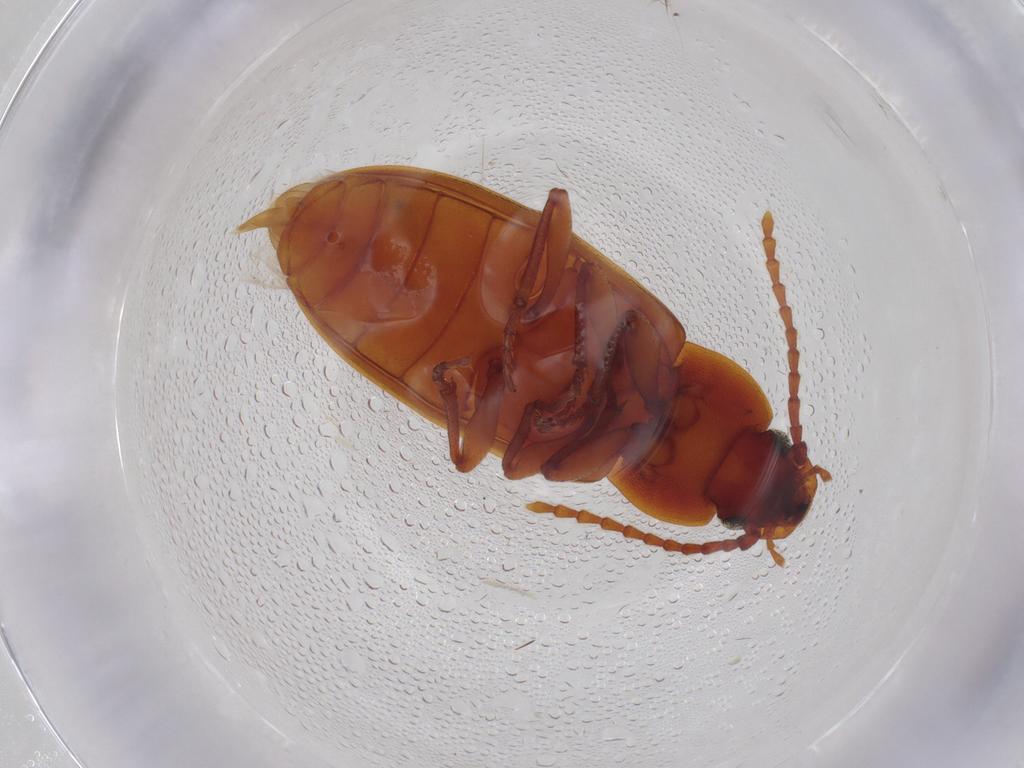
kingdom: Animalia
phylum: Arthropoda
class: Insecta
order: Coleoptera
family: Tenebrionidae
